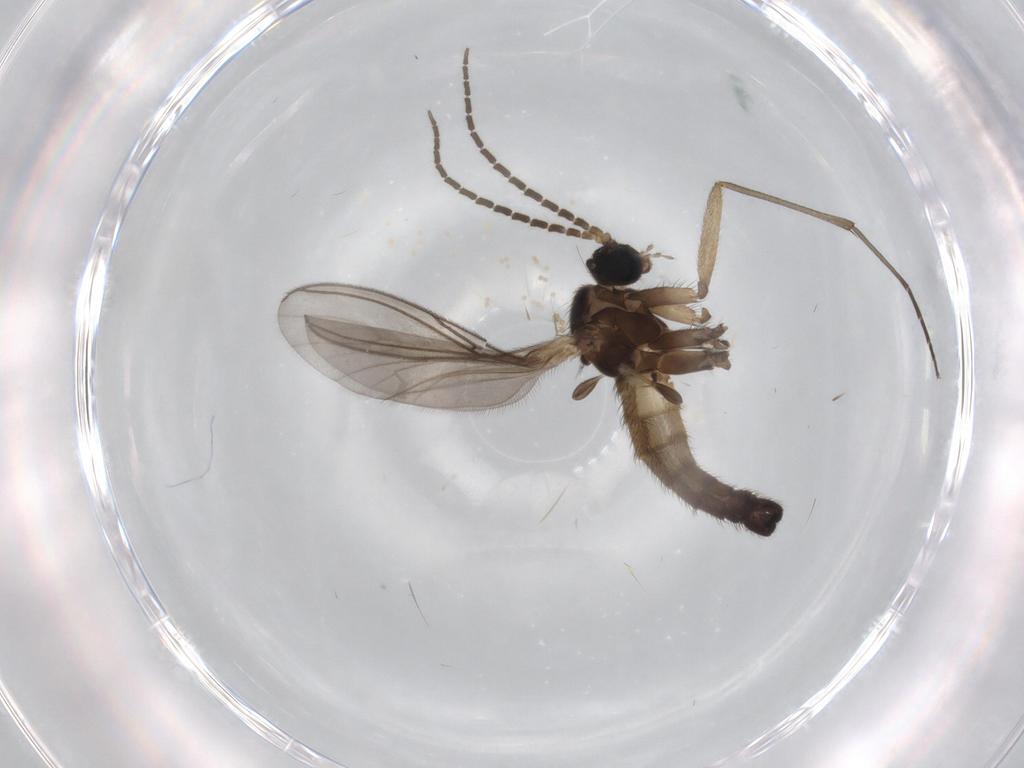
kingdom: Animalia
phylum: Arthropoda
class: Insecta
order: Diptera
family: Sciaridae
